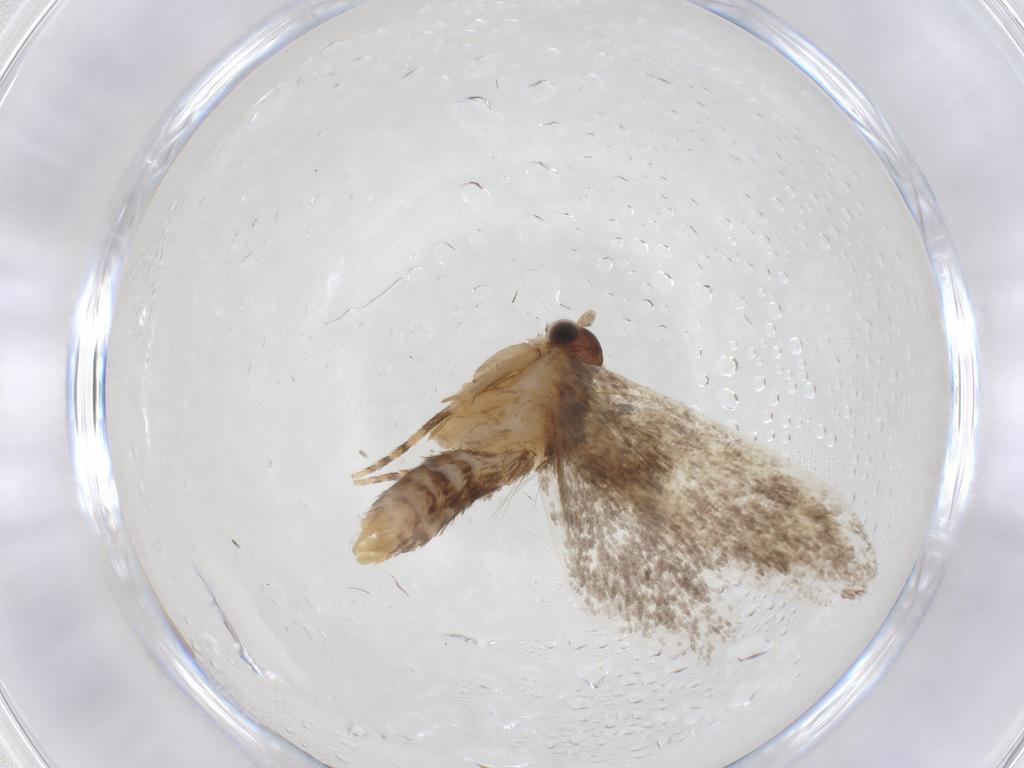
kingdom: Animalia
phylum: Arthropoda
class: Insecta
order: Lepidoptera
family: Dryadaulidae
